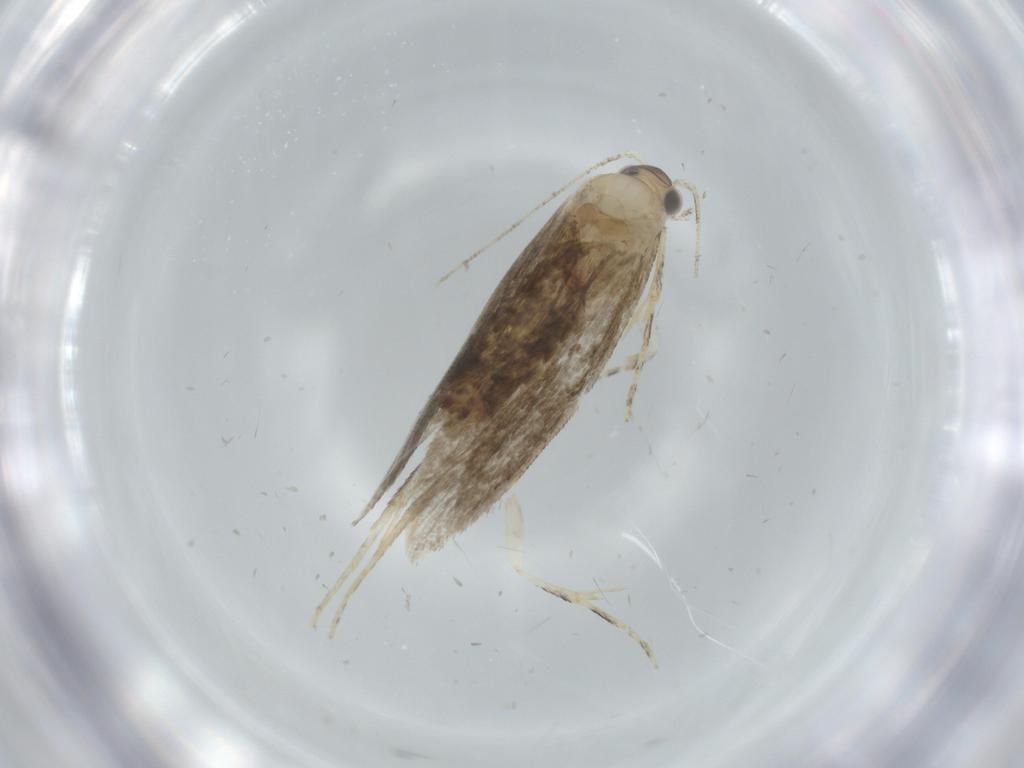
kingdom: Animalia
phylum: Arthropoda
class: Insecta
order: Lepidoptera
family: Tineidae
